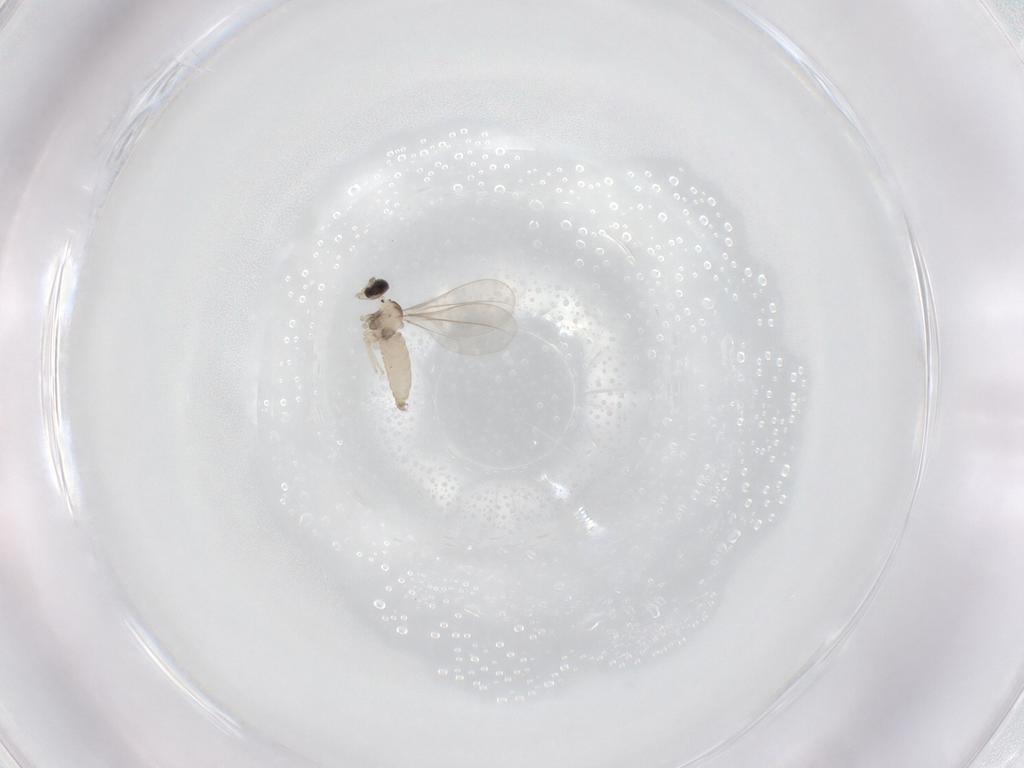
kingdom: Animalia
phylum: Arthropoda
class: Insecta
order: Diptera
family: Cecidomyiidae
